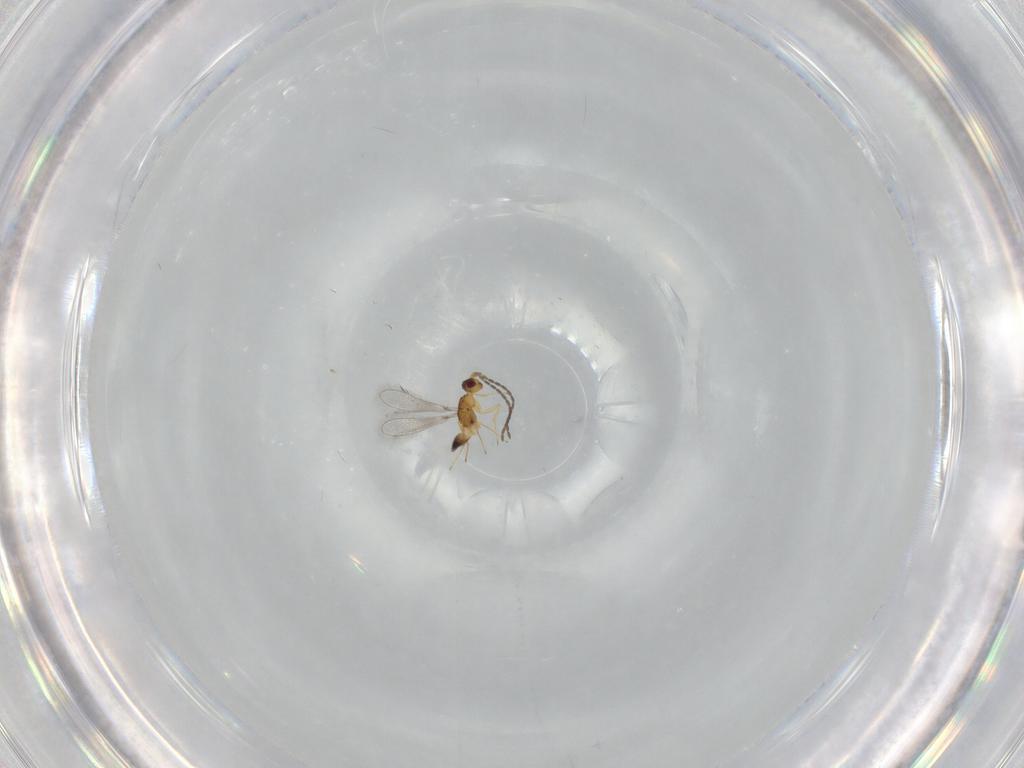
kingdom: Animalia
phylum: Arthropoda
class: Insecta
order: Hymenoptera
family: Mymaridae
